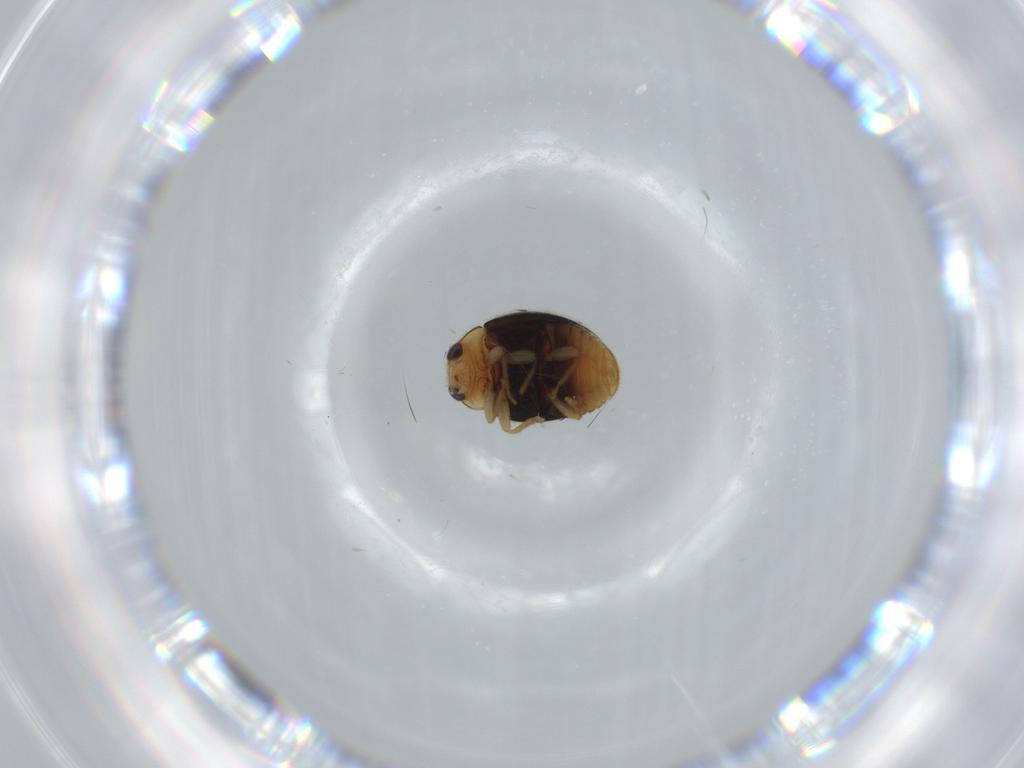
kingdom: Animalia
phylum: Arthropoda
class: Insecta
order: Coleoptera
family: Coccinellidae
